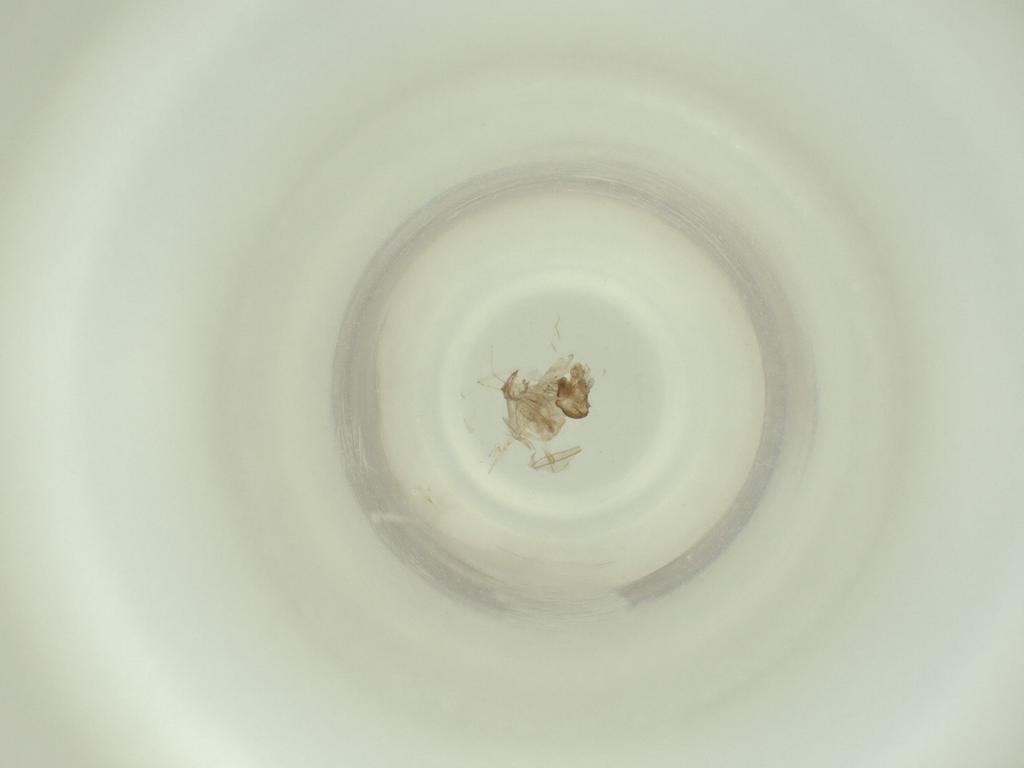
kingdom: Animalia
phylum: Arthropoda
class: Insecta
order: Diptera
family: Cecidomyiidae
